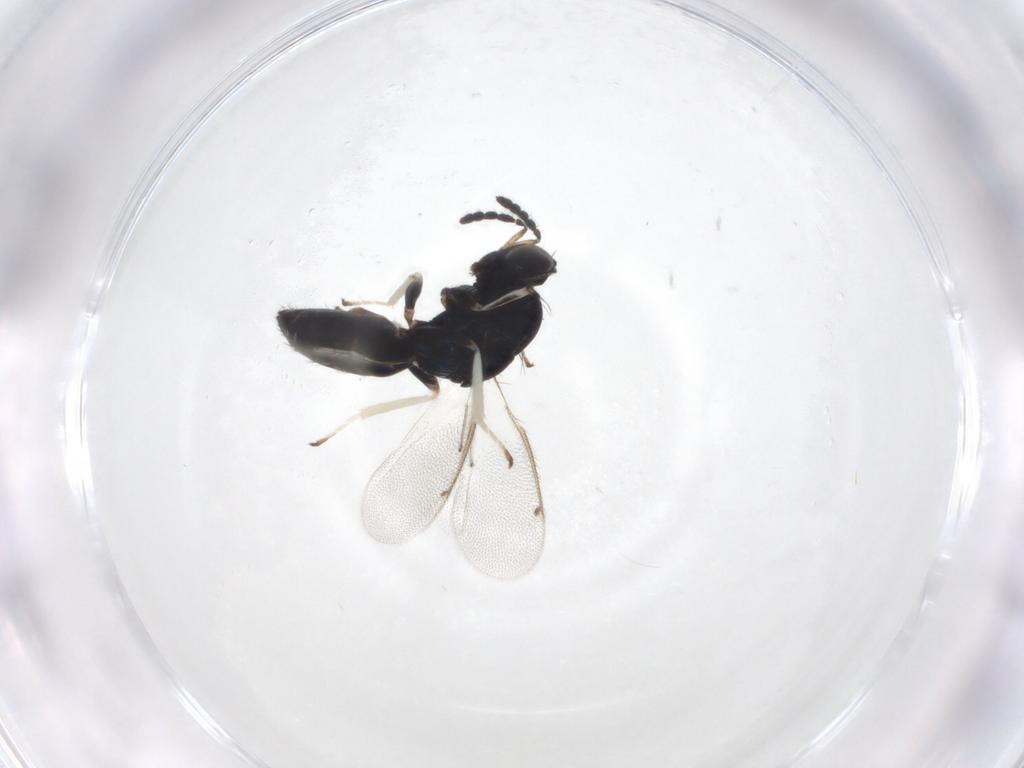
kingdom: Animalia
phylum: Arthropoda
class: Insecta
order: Hymenoptera
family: Eulophidae
